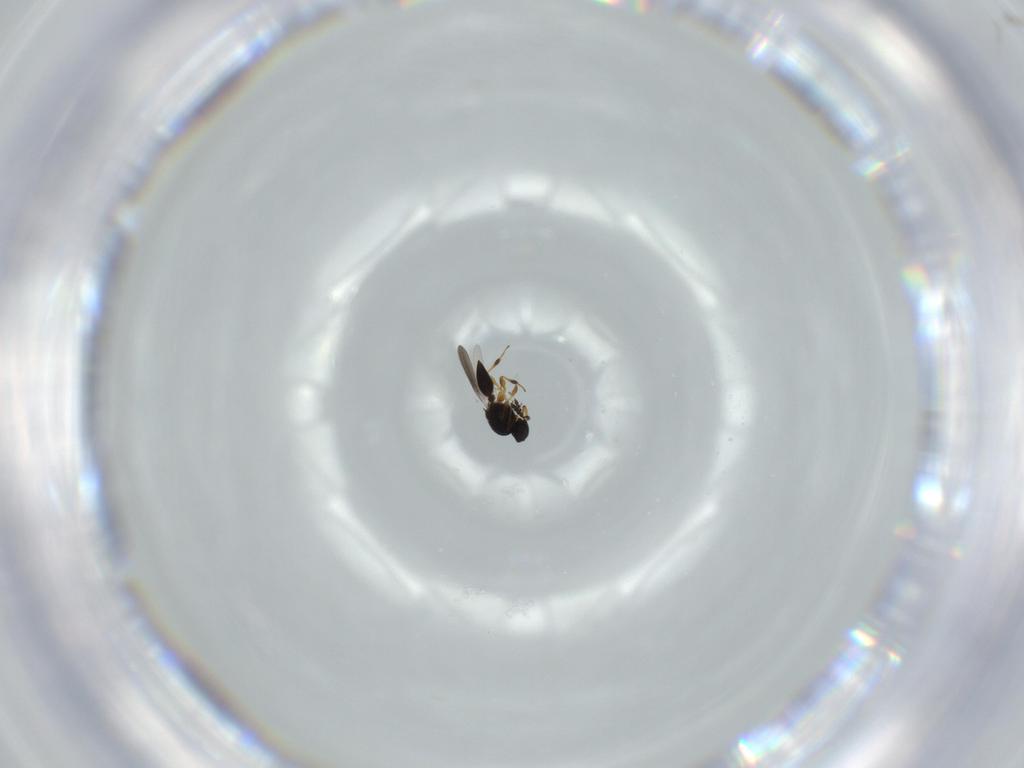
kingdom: Animalia
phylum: Arthropoda
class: Insecta
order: Hymenoptera
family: Platygastridae
